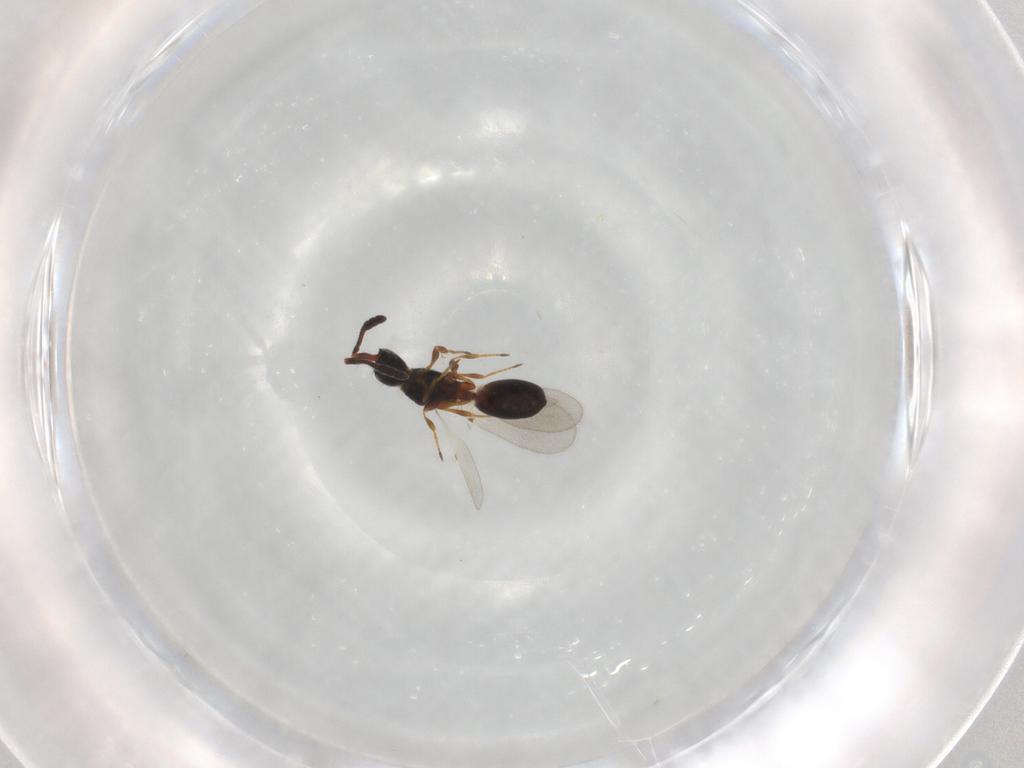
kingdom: Animalia
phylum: Arthropoda
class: Insecta
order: Hymenoptera
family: Diapriidae
